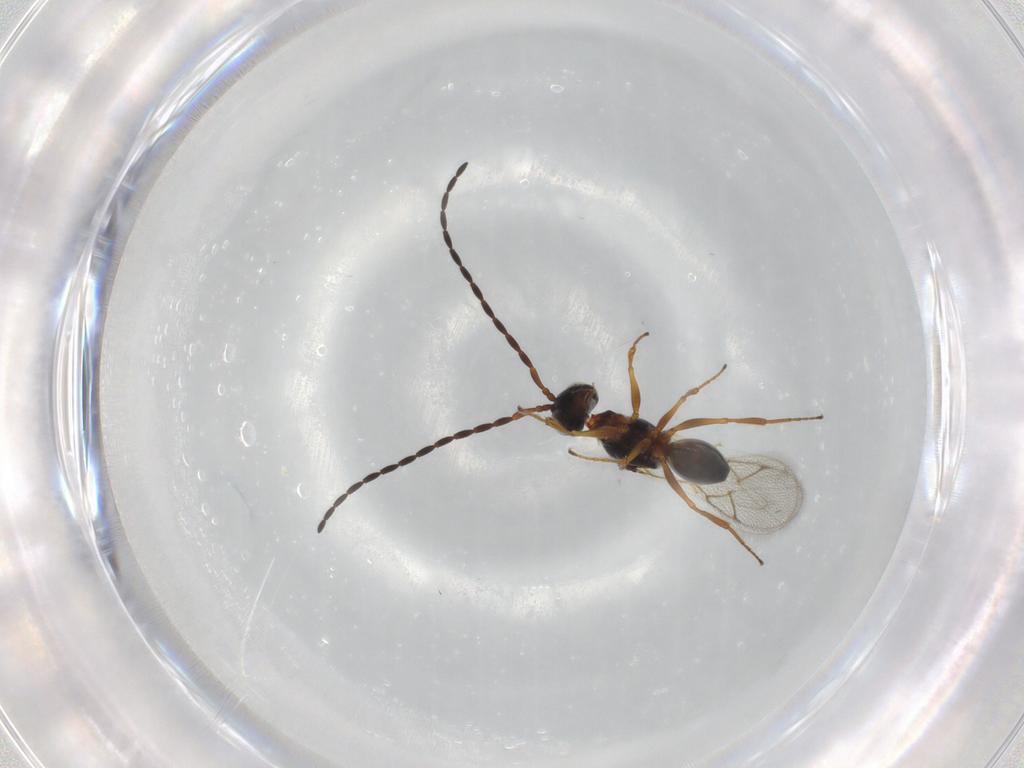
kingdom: Animalia
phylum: Arthropoda
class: Insecta
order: Hymenoptera
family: Figitidae
